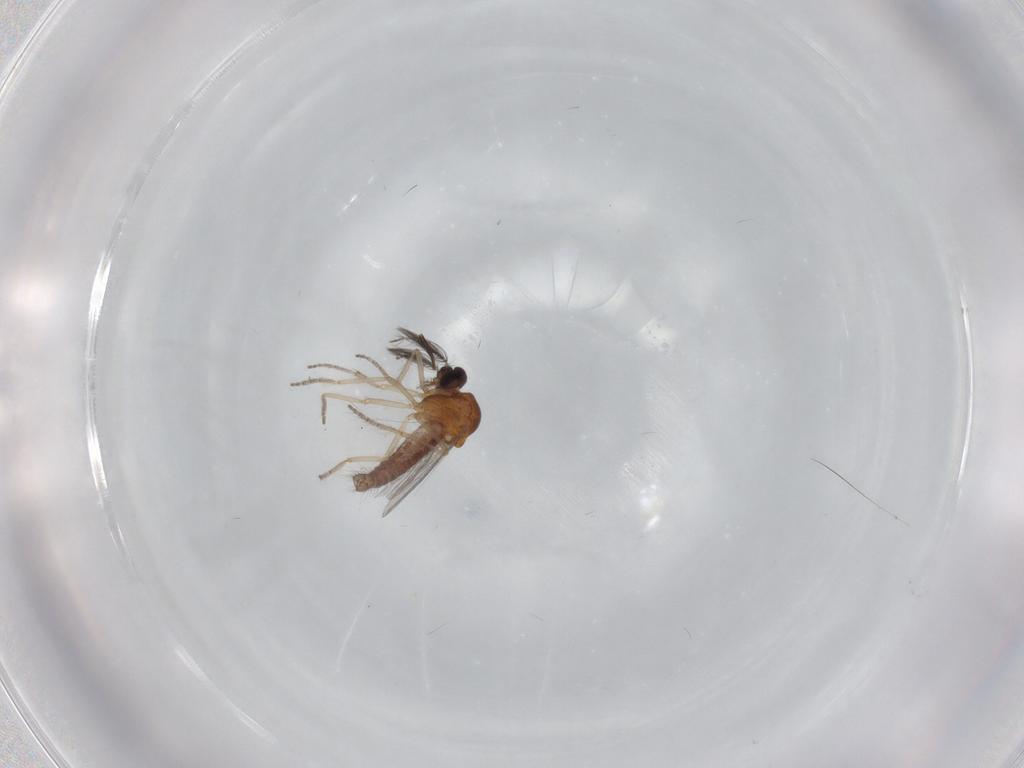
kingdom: Animalia
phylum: Arthropoda
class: Insecta
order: Diptera
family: Ceratopogonidae
